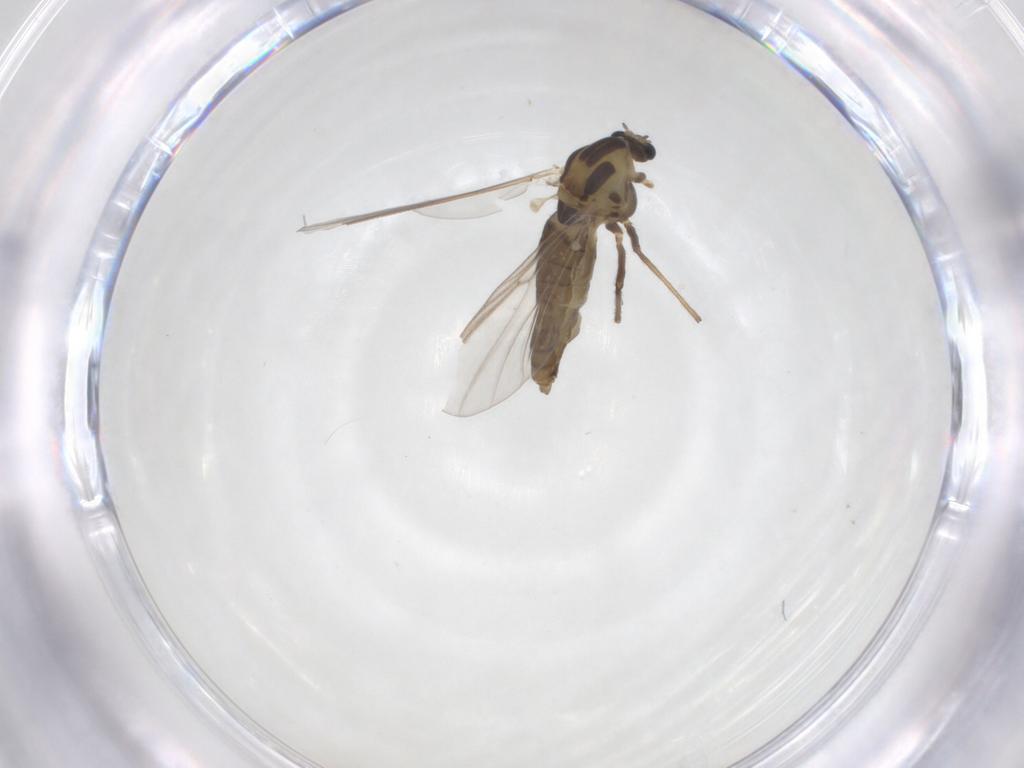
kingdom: Animalia
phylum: Arthropoda
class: Insecta
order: Diptera
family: Chironomidae
